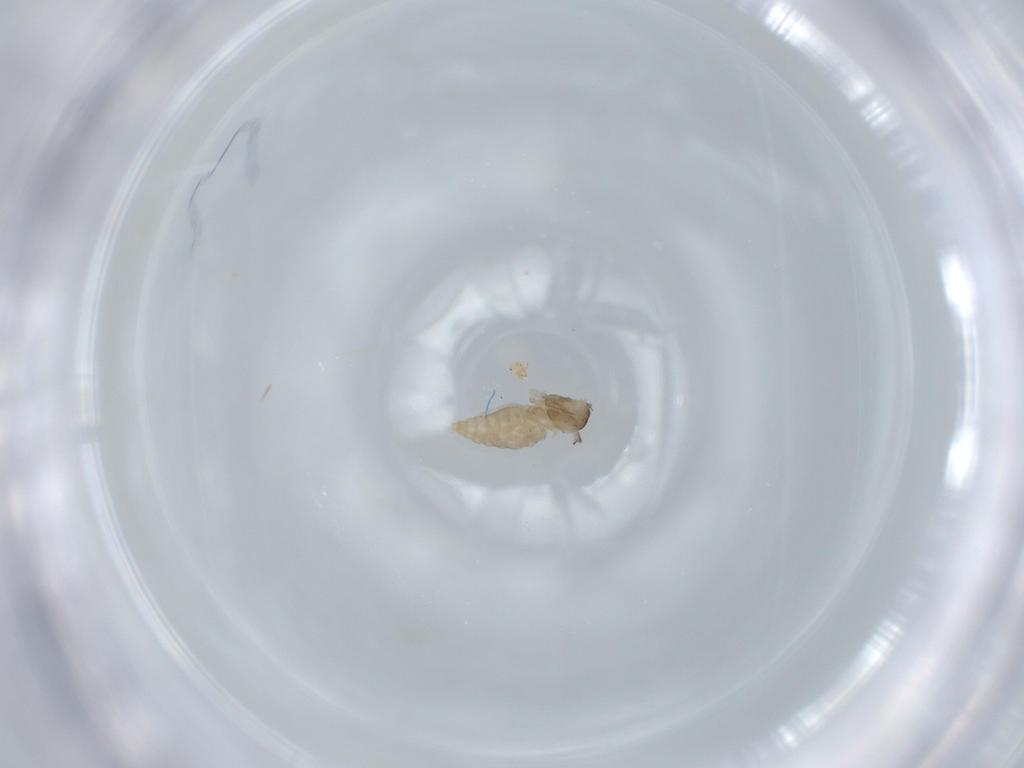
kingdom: Animalia
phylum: Arthropoda
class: Insecta
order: Diptera
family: Cecidomyiidae
